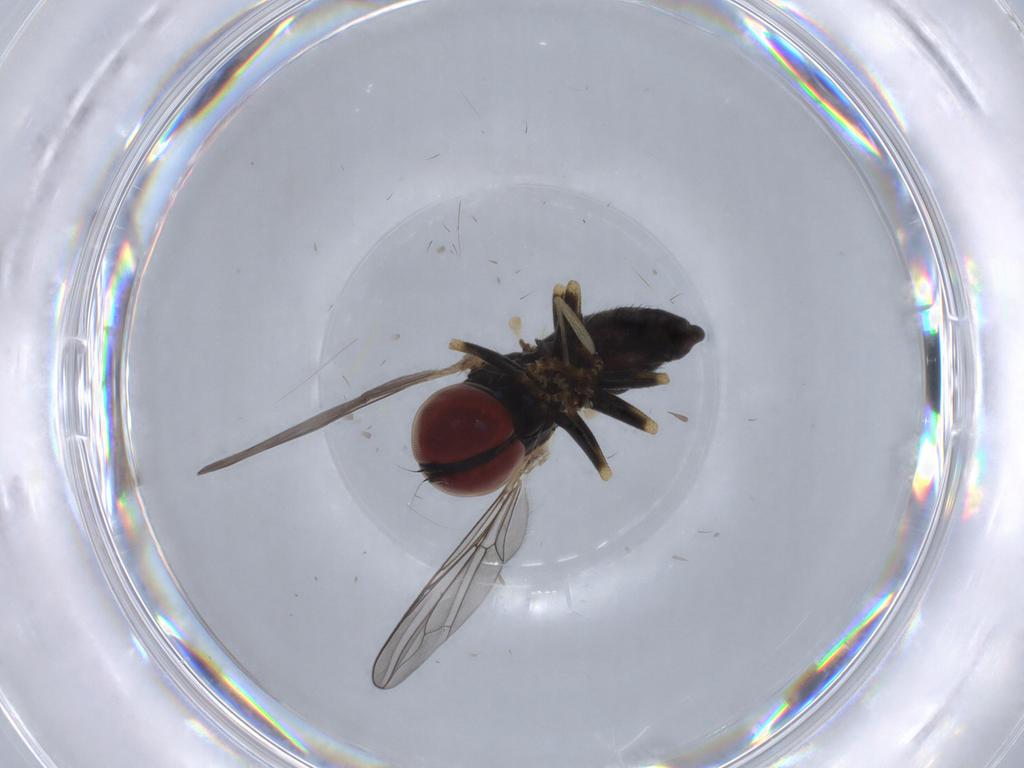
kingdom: Animalia
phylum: Arthropoda
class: Insecta
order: Diptera
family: Pipunculidae
